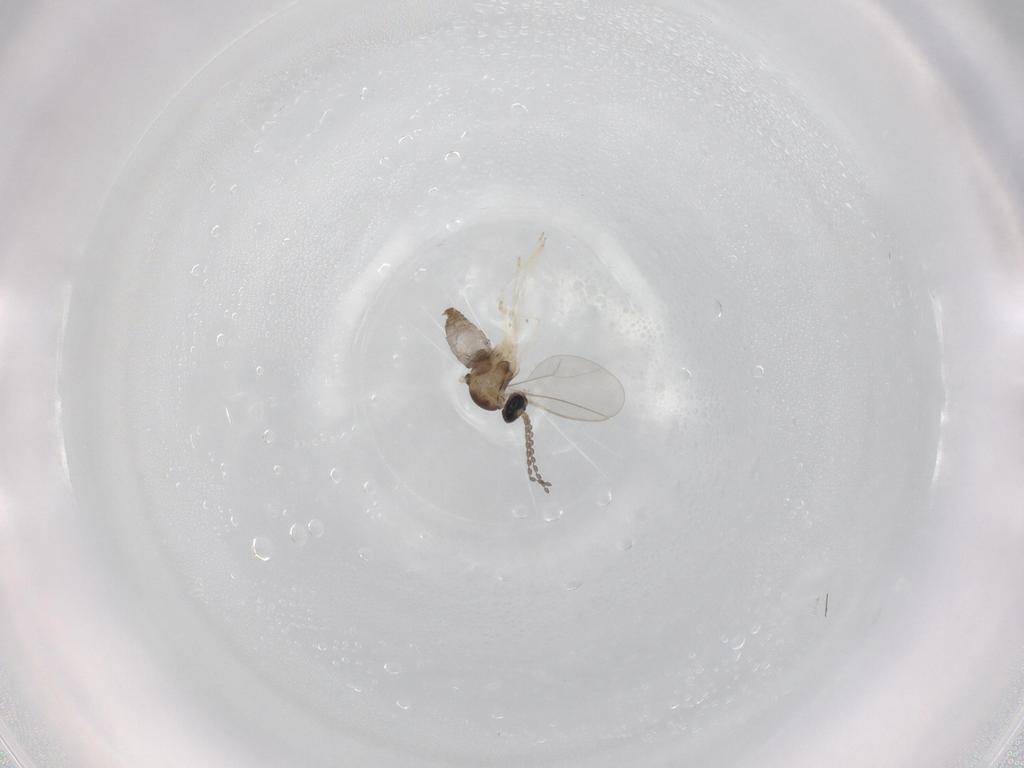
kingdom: Animalia
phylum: Arthropoda
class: Insecta
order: Diptera
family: Cecidomyiidae
